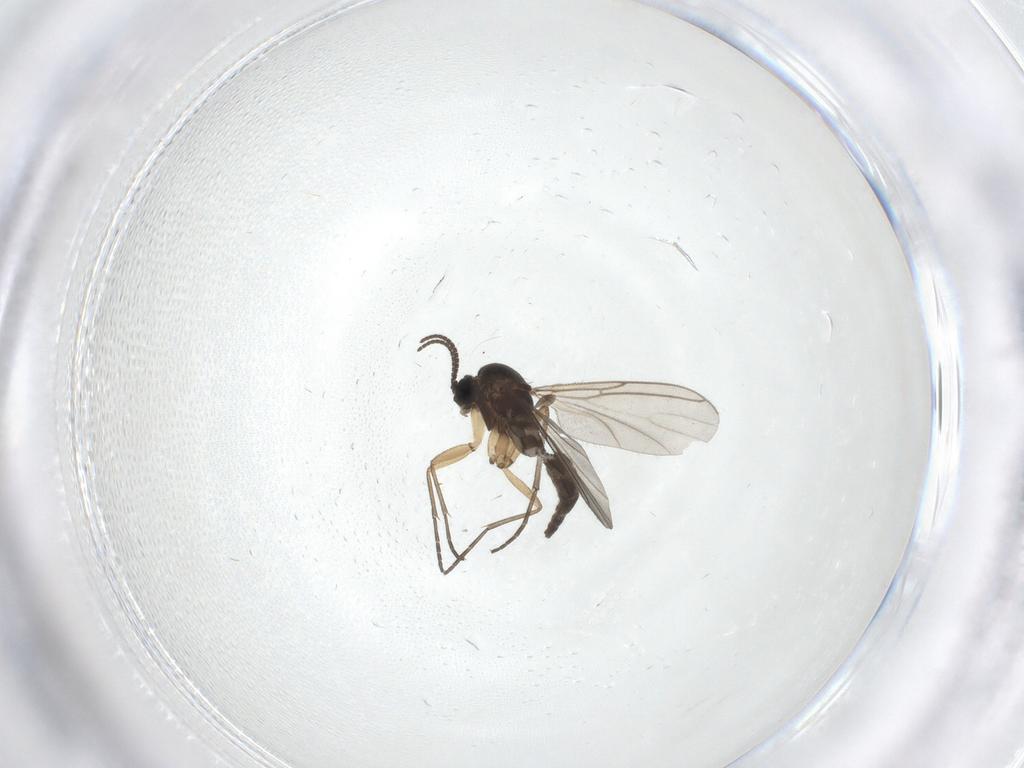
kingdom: Animalia
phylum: Arthropoda
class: Insecta
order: Diptera
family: Sciaridae
